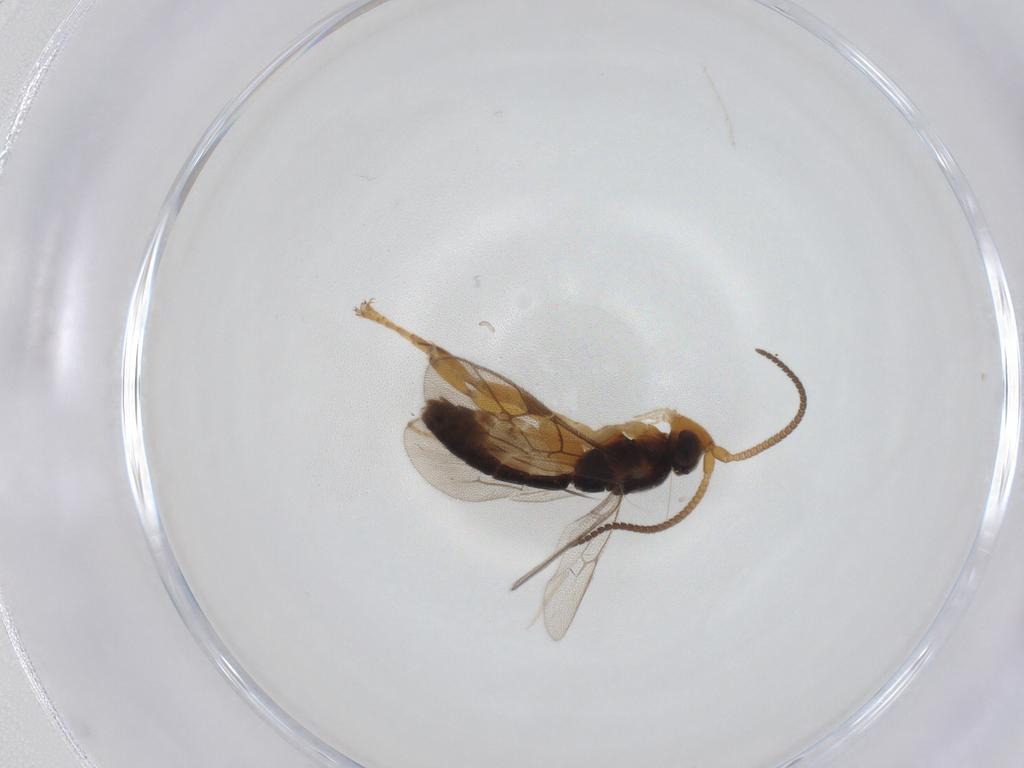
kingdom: Animalia
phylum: Arthropoda
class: Insecta
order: Hymenoptera
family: Ichneumonidae
